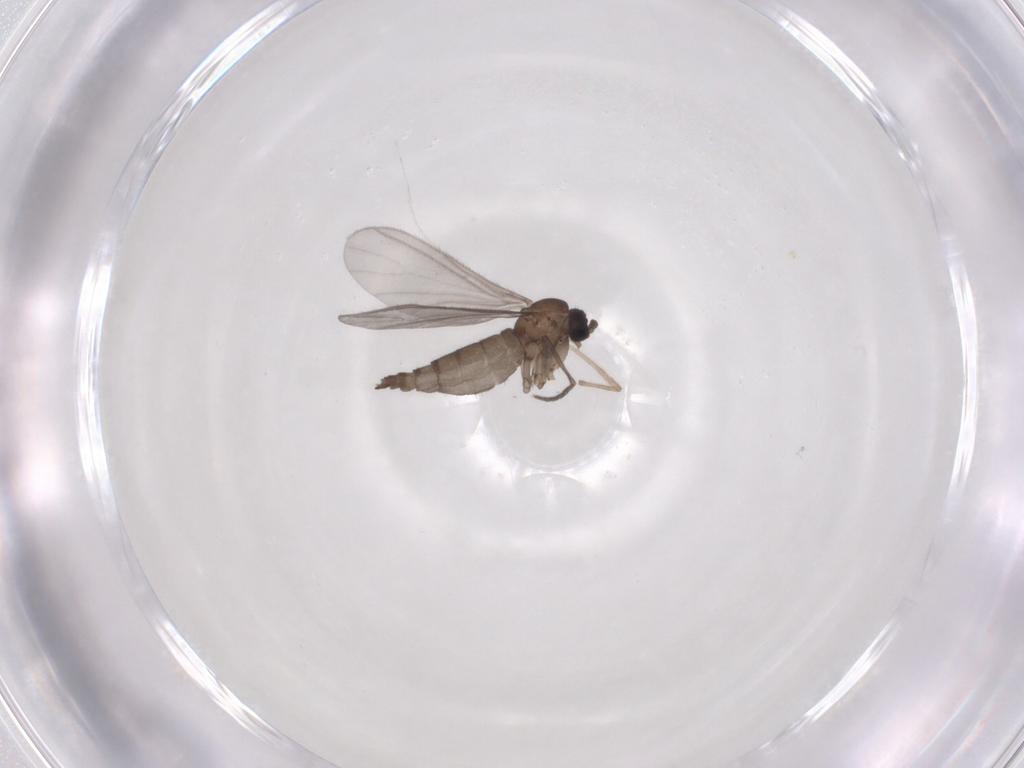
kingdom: Animalia
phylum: Arthropoda
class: Insecta
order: Diptera
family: Sciaridae
